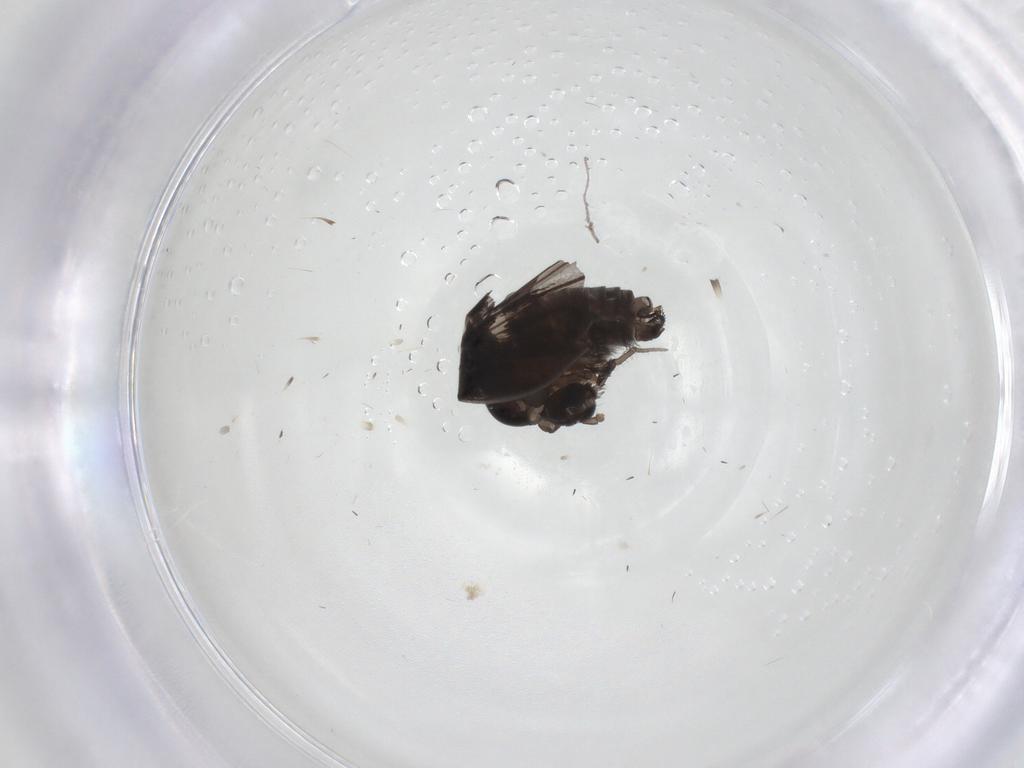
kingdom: Animalia
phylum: Arthropoda
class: Insecta
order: Diptera
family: Psychodidae
